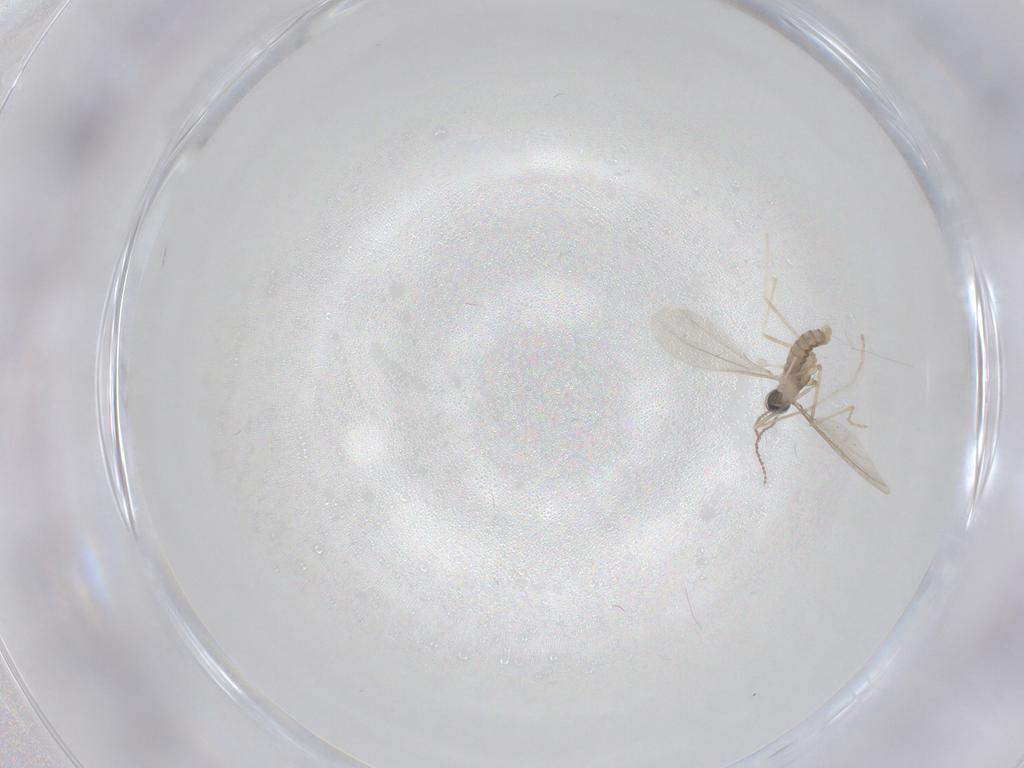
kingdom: Animalia
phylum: Arthropoda
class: Insecta
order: Diptera
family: Cecidomyiidae
